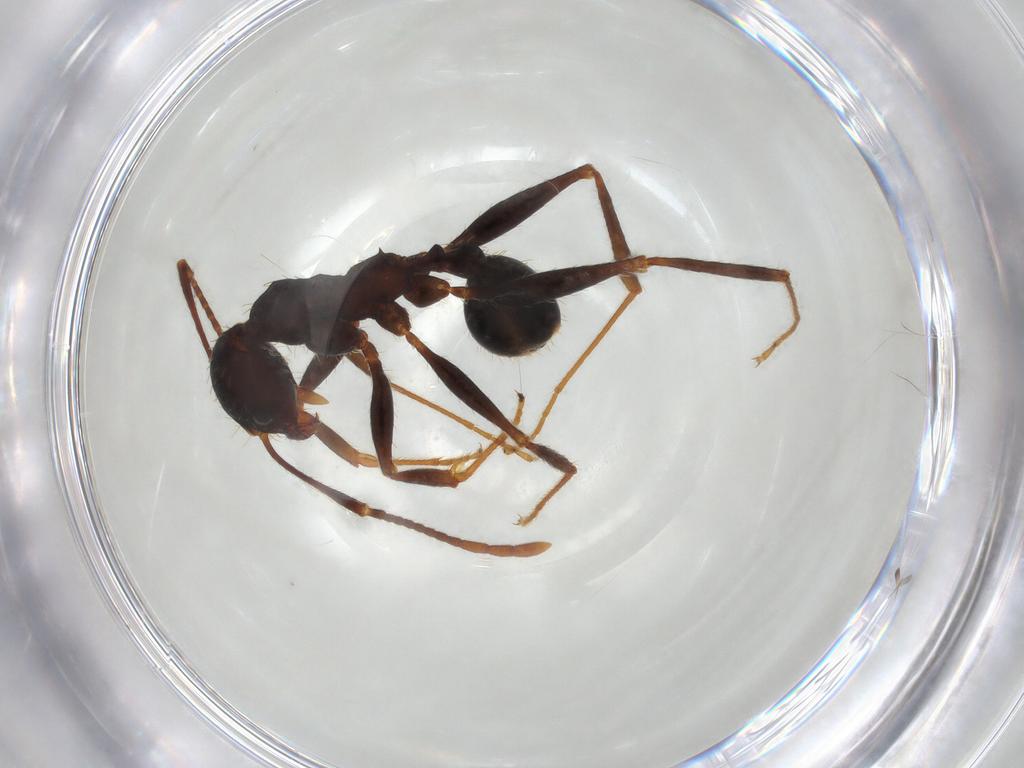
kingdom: Animalia
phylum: Arthropoda
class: Insecta
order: Hymenoptera
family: Formicidae
